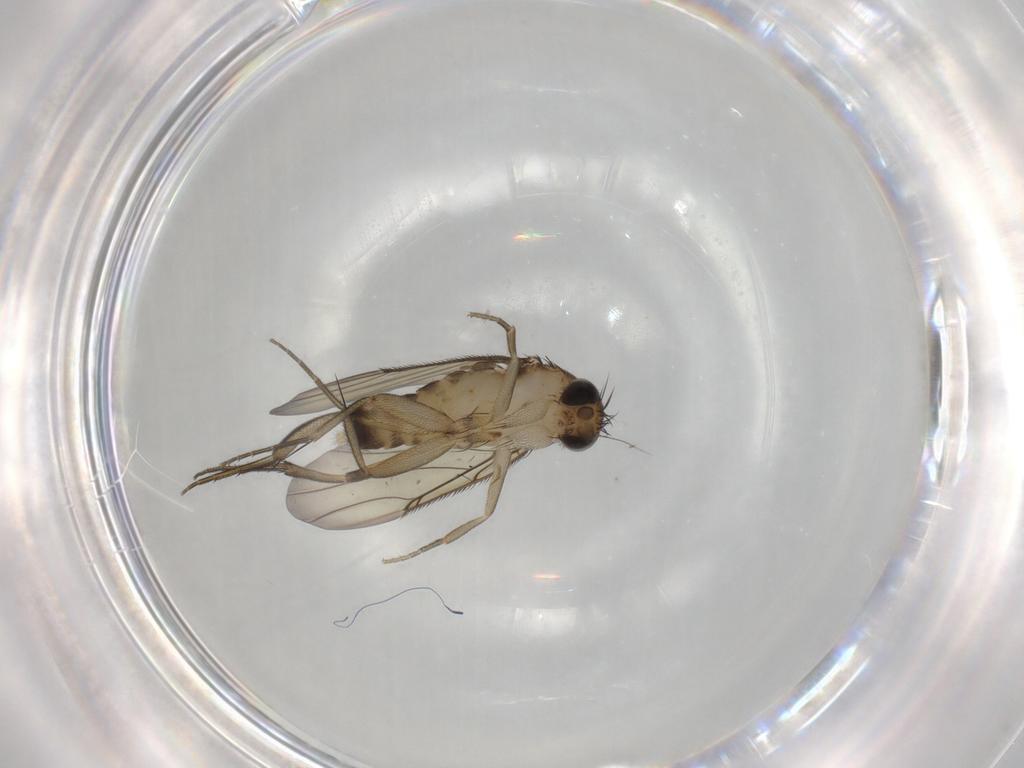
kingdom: Animalia
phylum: Arthropoda
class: Insecta
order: Diptera
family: Phoridae
